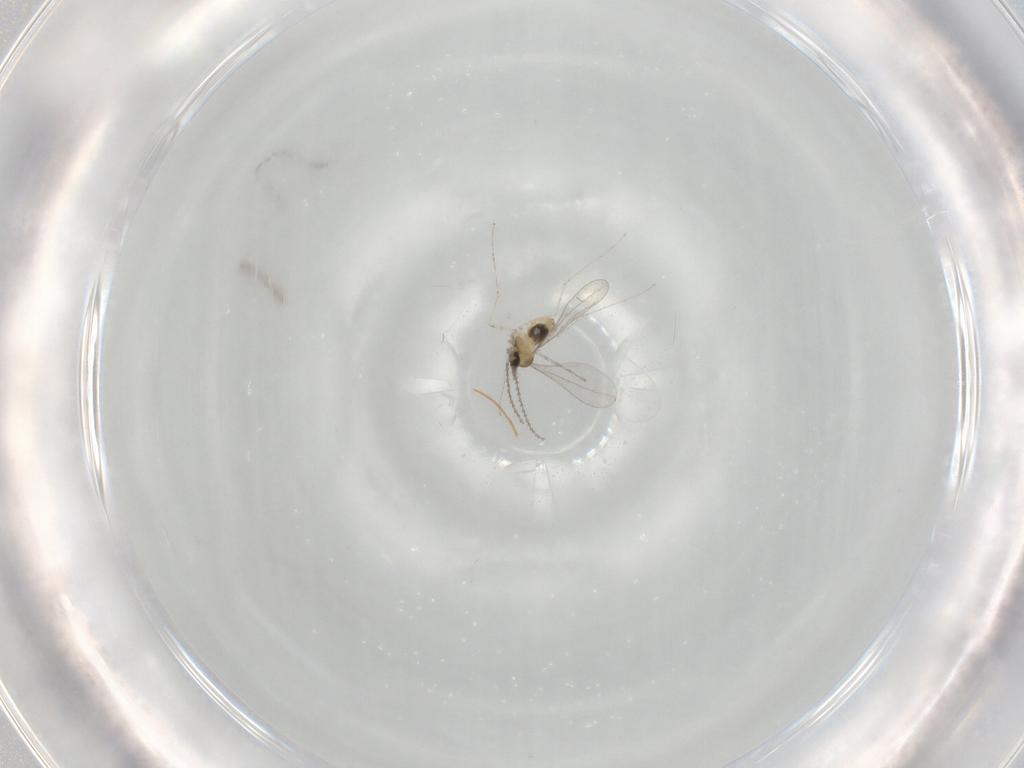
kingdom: Animalia
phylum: Arthropoda
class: Insecta
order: Diptera
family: Cecidomyiidae
